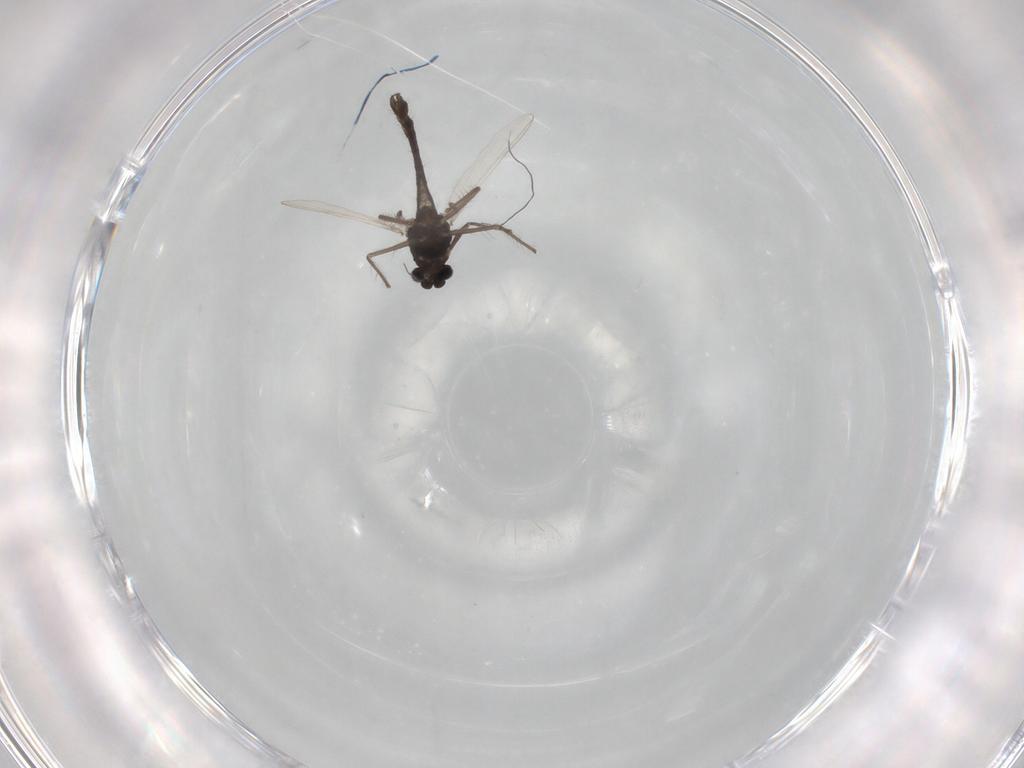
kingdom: Animalia
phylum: Arthropoda
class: Insecta
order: Diptera
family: Chironomidae
